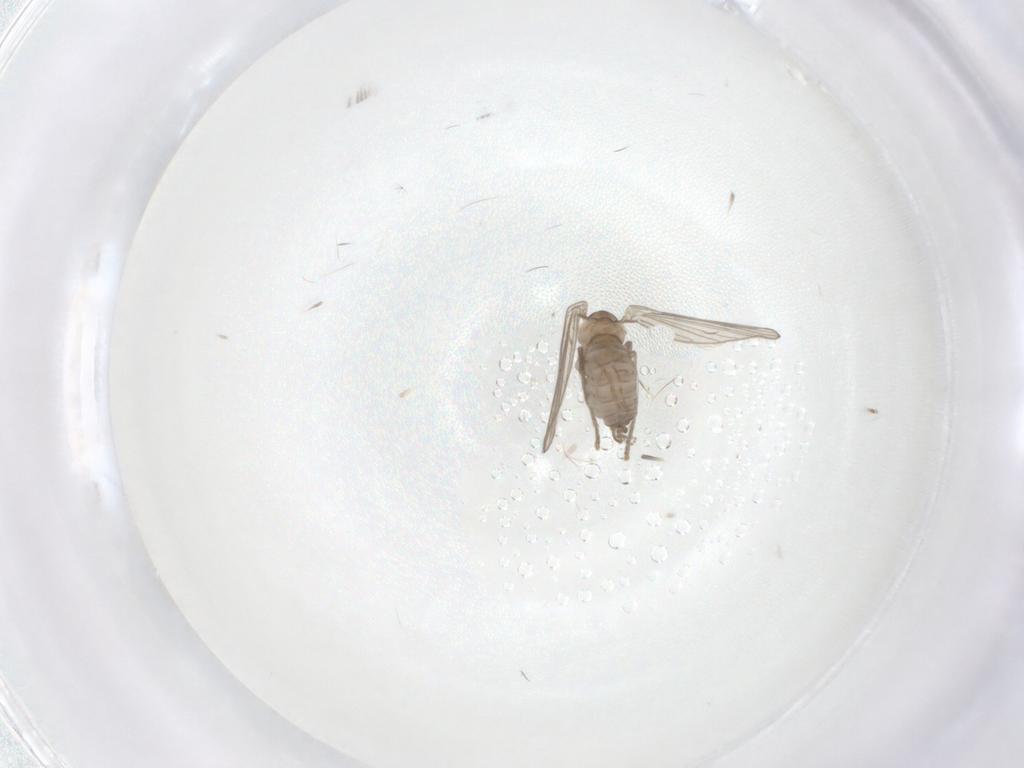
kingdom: Animalia
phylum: Arthropoda
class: Insecta
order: Diptera
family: Psychodidae
